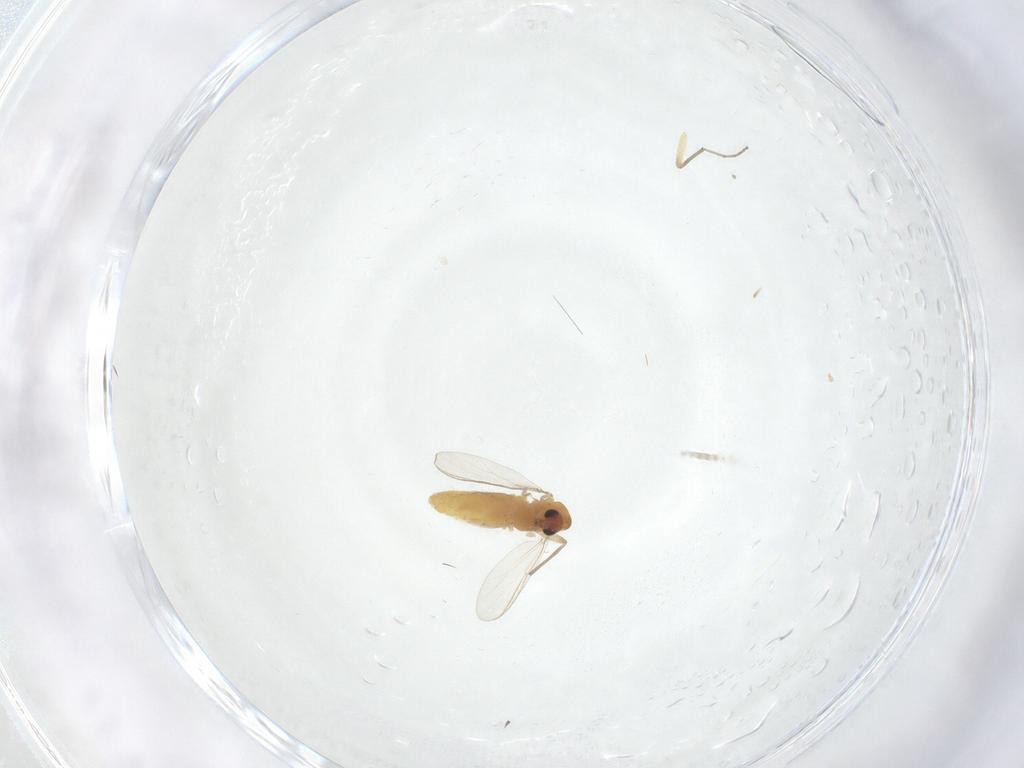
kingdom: Animalia
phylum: Arthropoda
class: Insecta
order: Diptera
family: Chironomidae
